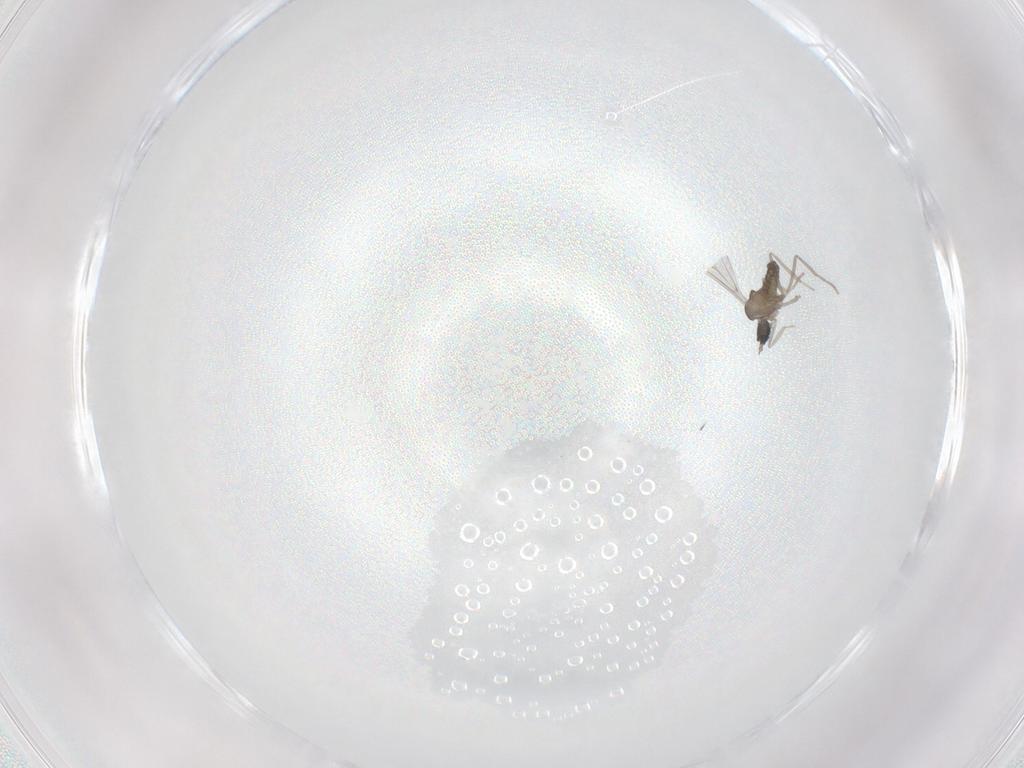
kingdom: Animalia
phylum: Arthropoda
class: Insecta
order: Diptera
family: Cecidomyiidae
